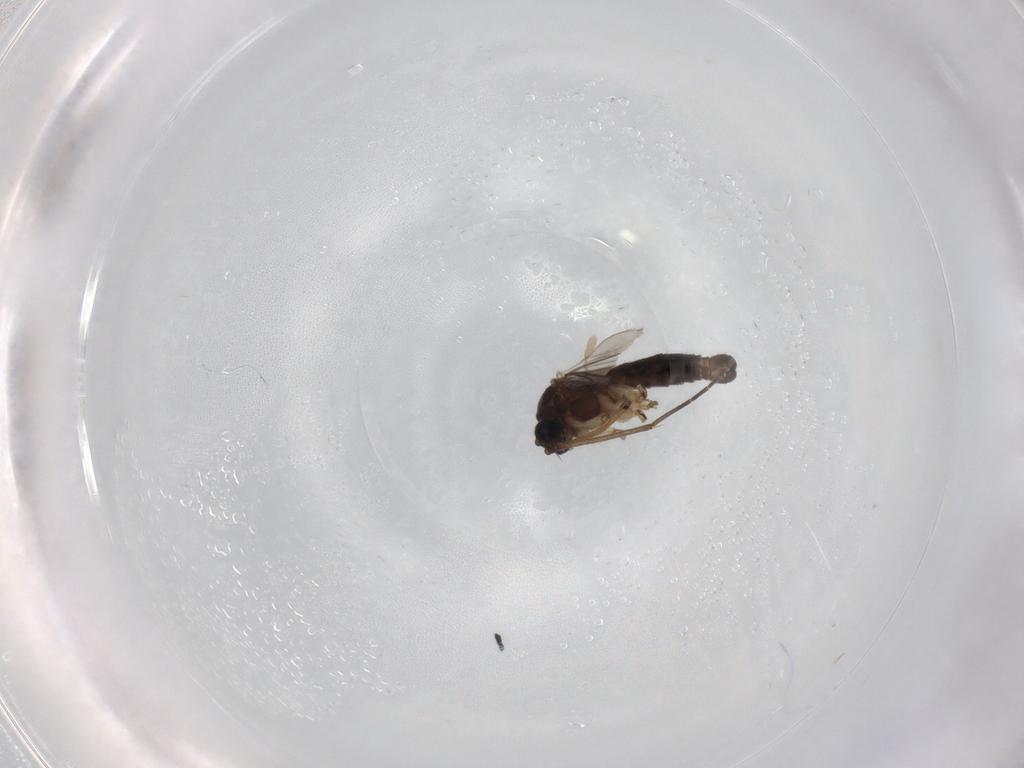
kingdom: Animalia
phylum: Arthropoda
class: Insecta
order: Diptera
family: Sciaridae
